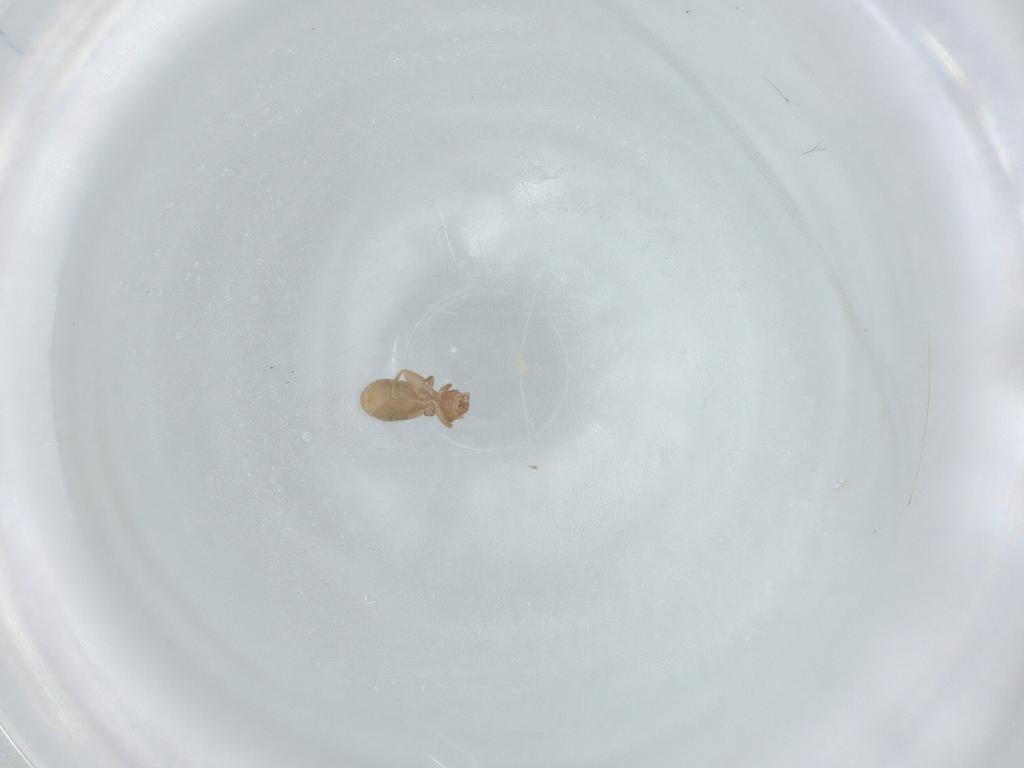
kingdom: Animalia
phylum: Arthropoda
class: Insecta
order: Psocodea
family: Liposcelididae
